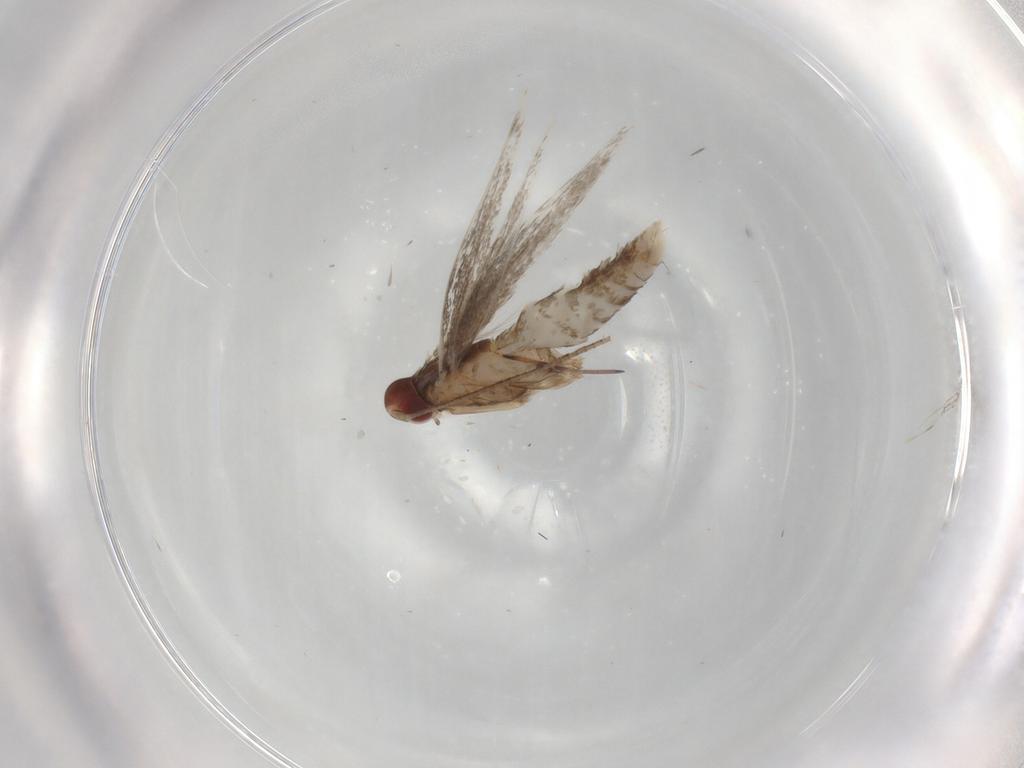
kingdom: Animalia
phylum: Arthropoda
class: Insecta
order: Lepidoptera
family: Gracillariidae
